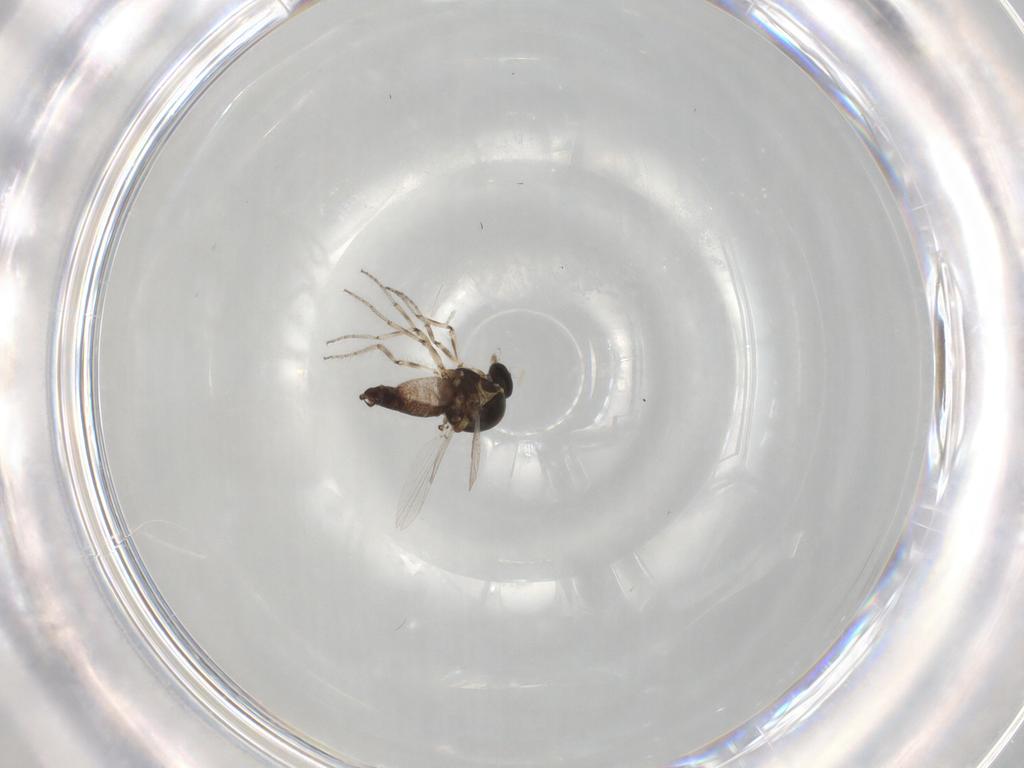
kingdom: Animalia
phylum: Arthropoda
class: Insecta
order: Diptera
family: Ceratopogonidae
